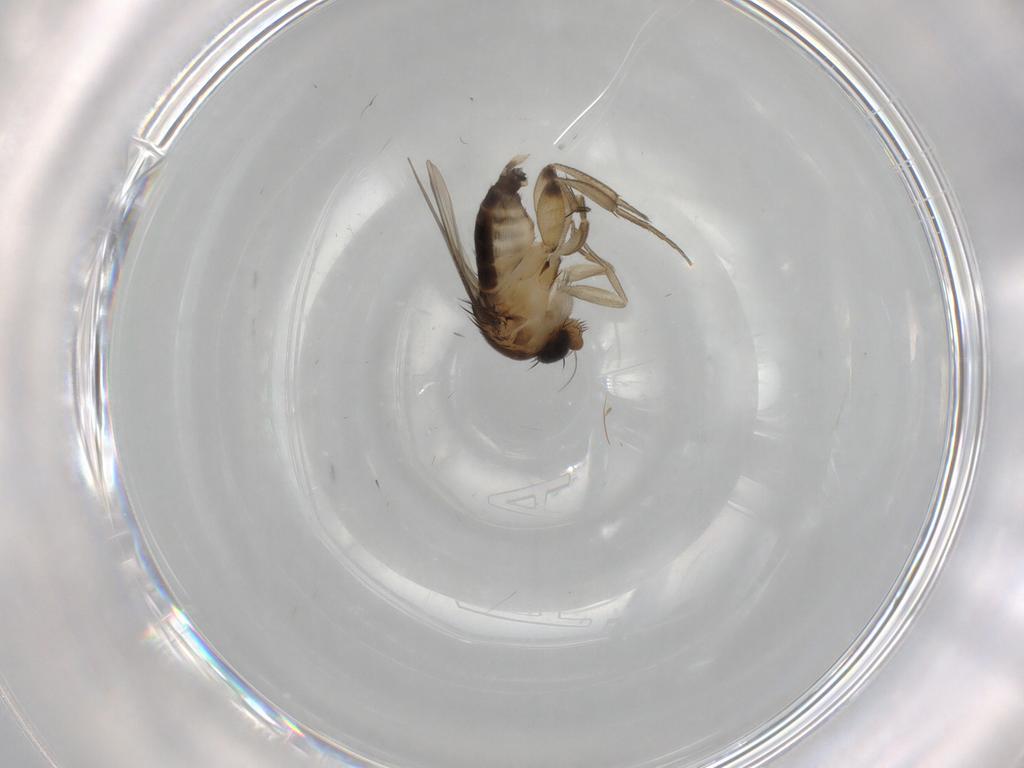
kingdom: Animalia
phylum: Arthropoda
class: Insecta
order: Diptera
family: Phoridae
